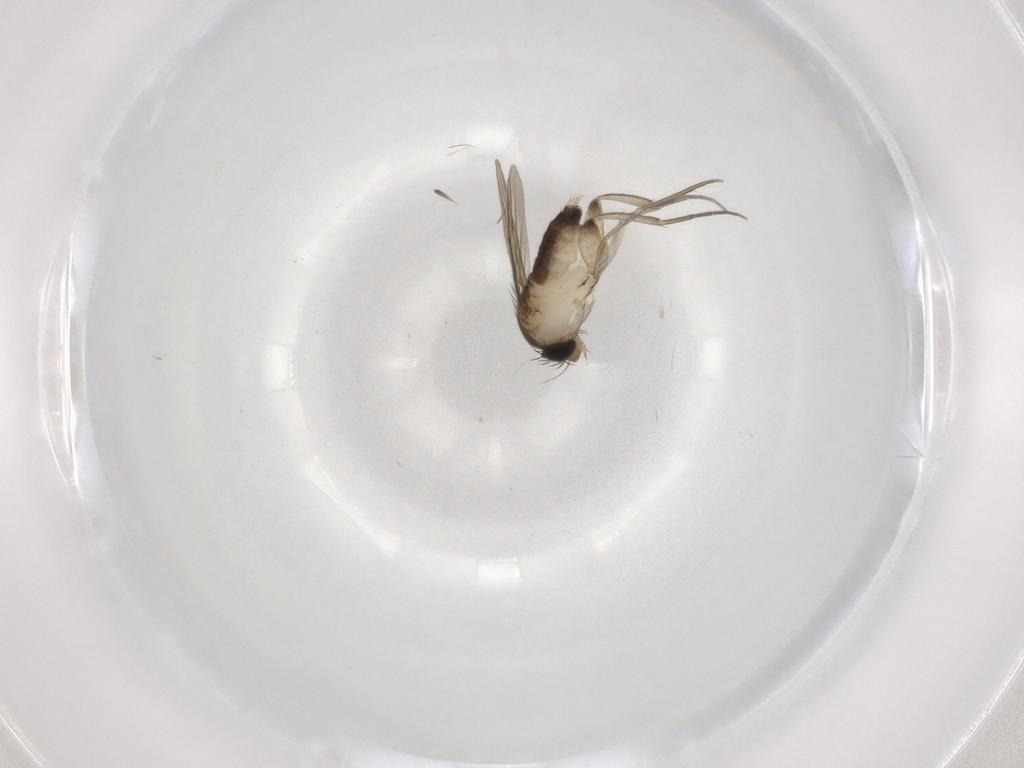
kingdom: Animalia
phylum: Arthropoda
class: Insecta
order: Diptera
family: Phoridae
